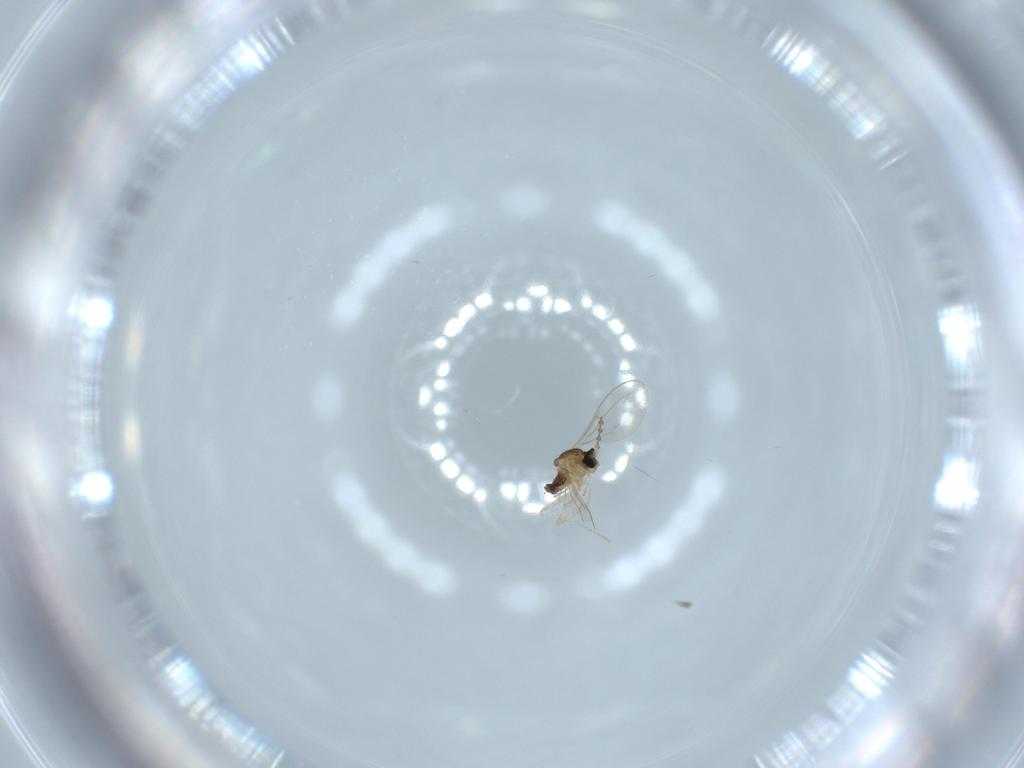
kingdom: Animalia
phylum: Arthropoda
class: Insecta
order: Diptera
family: Cecidomyiidae
